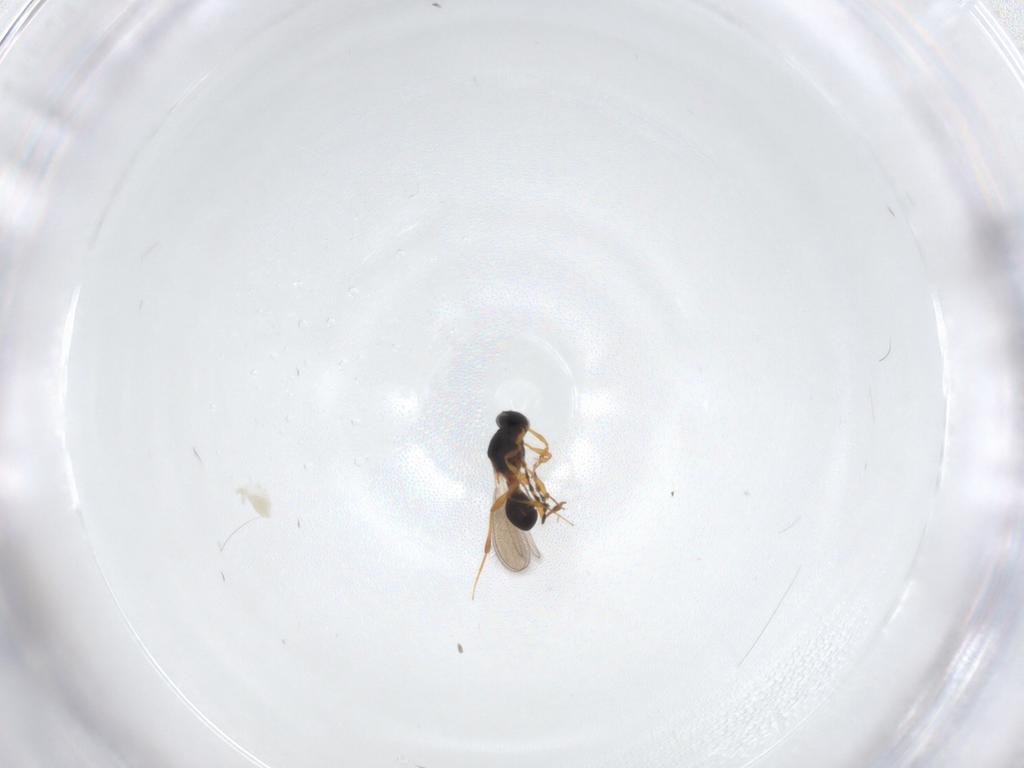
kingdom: Animalia
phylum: Arthropoda
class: Insecta
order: Hymenoptera
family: Platygastridae
